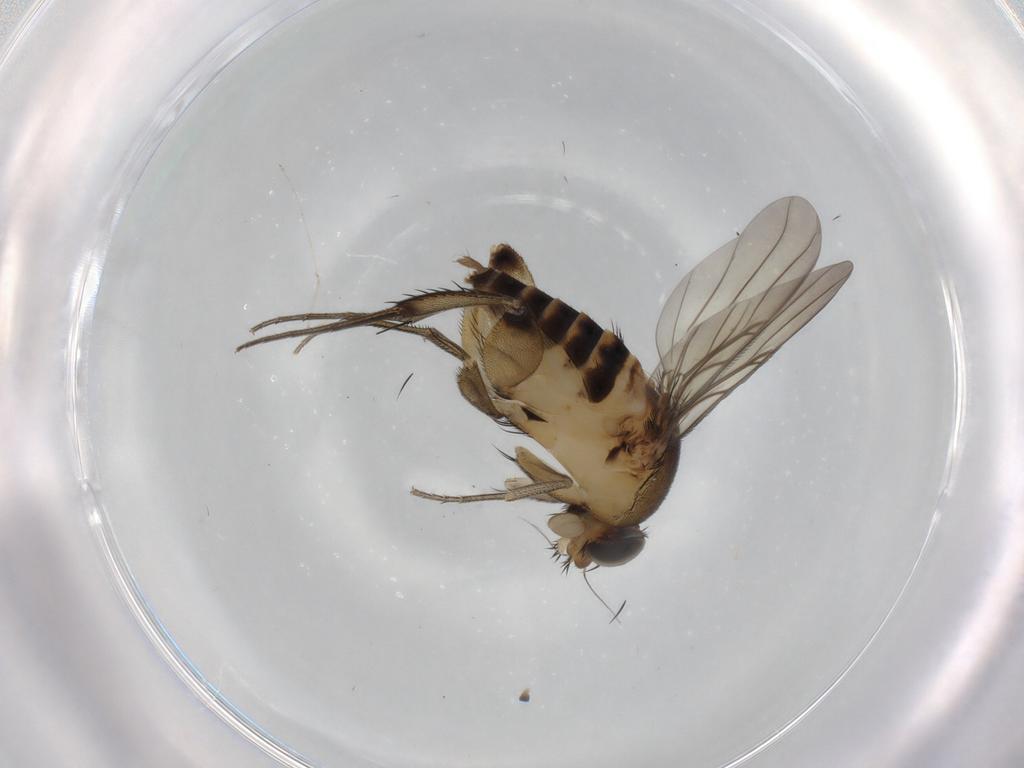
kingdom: Animalia
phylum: Arthropoda
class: Insecta
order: Diptera
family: Phoridae
